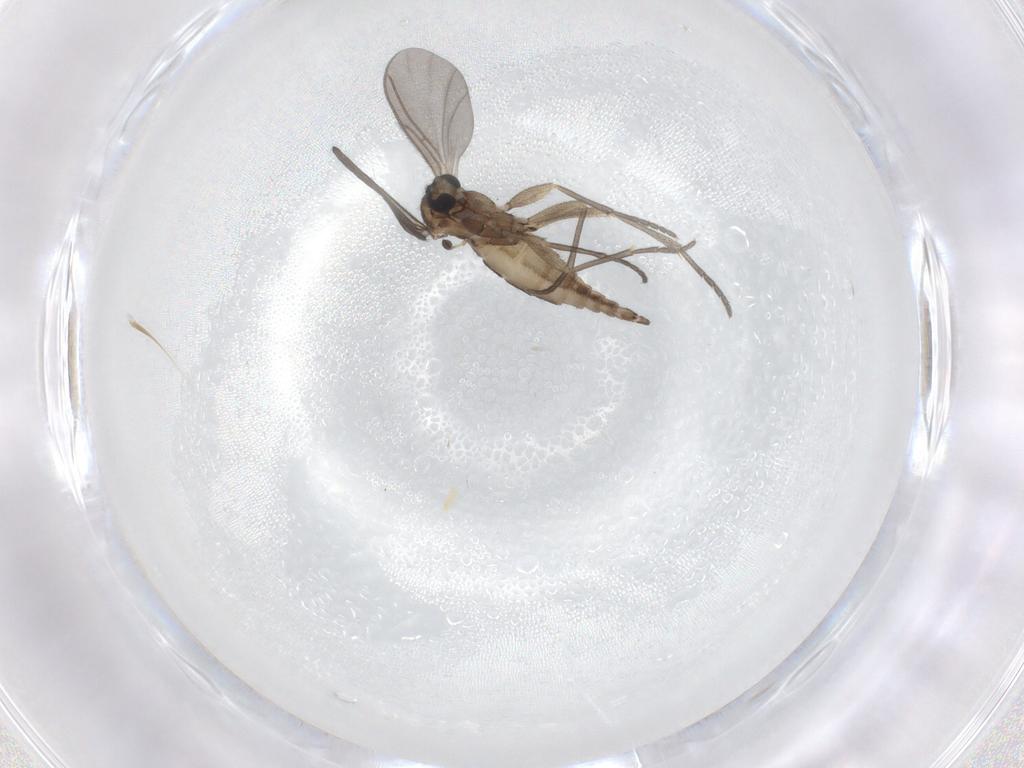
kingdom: Animalia
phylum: Arthropoda
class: Insecta
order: Diptera
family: Sciaridae
